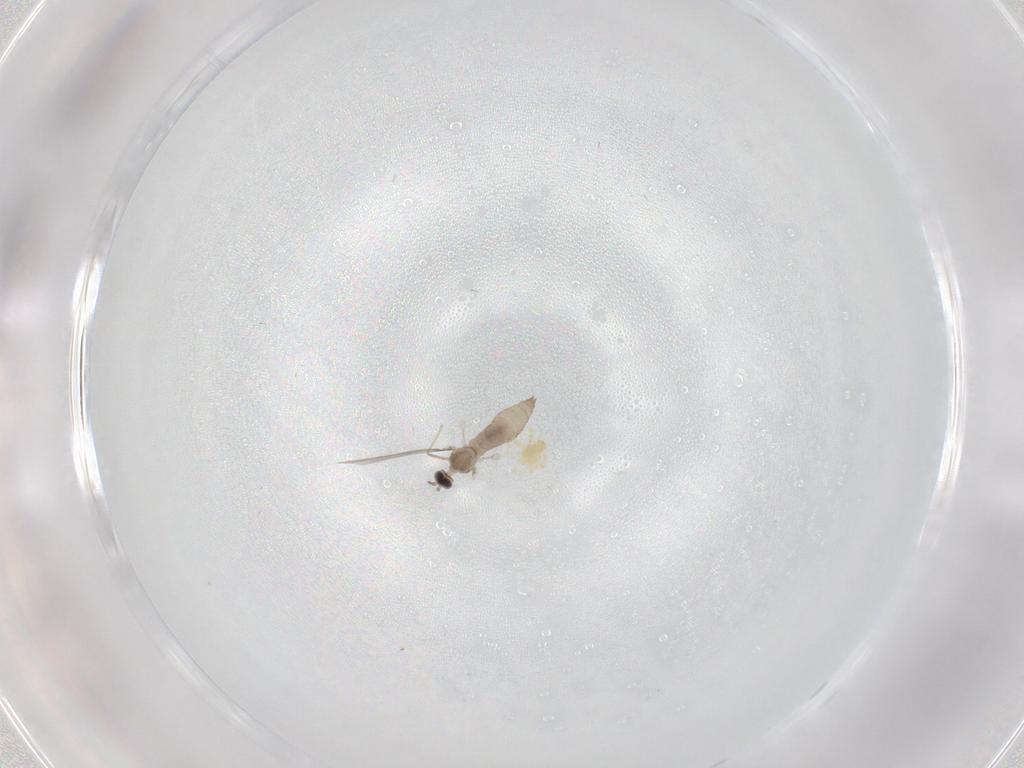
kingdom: Animalia
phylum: Arthropoda
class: Insecta
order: Diptera
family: Cecidomyiidae
